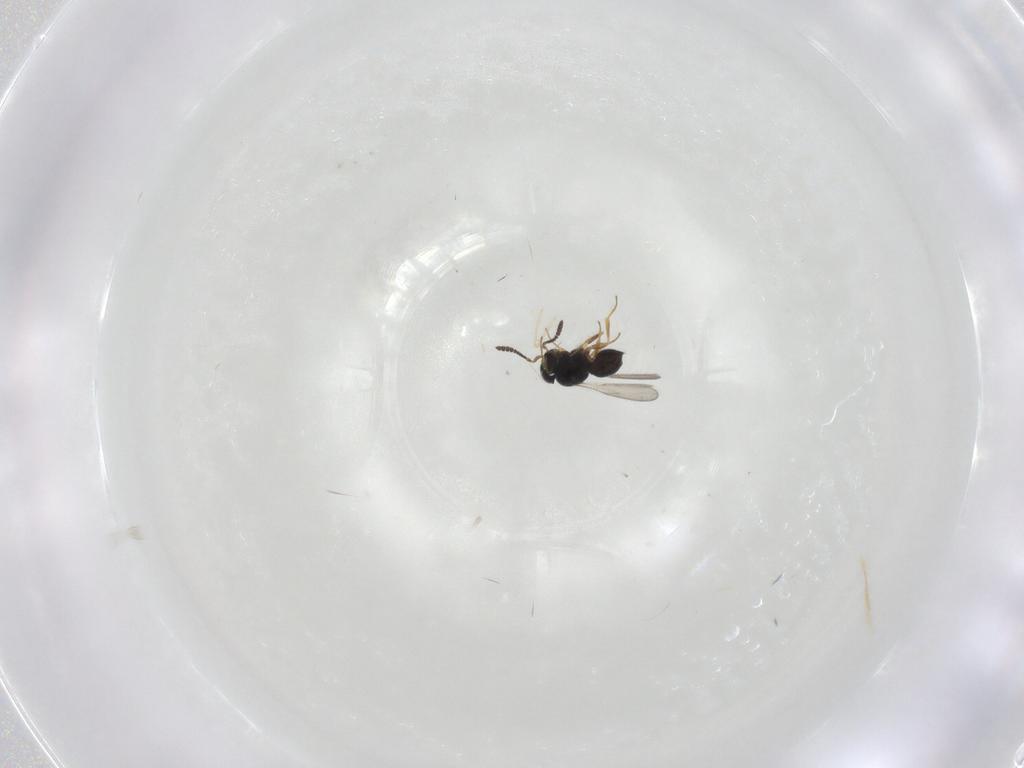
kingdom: Animalia
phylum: Arthropoda
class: Insecta
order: Hymenoptera
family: Scelionidae
